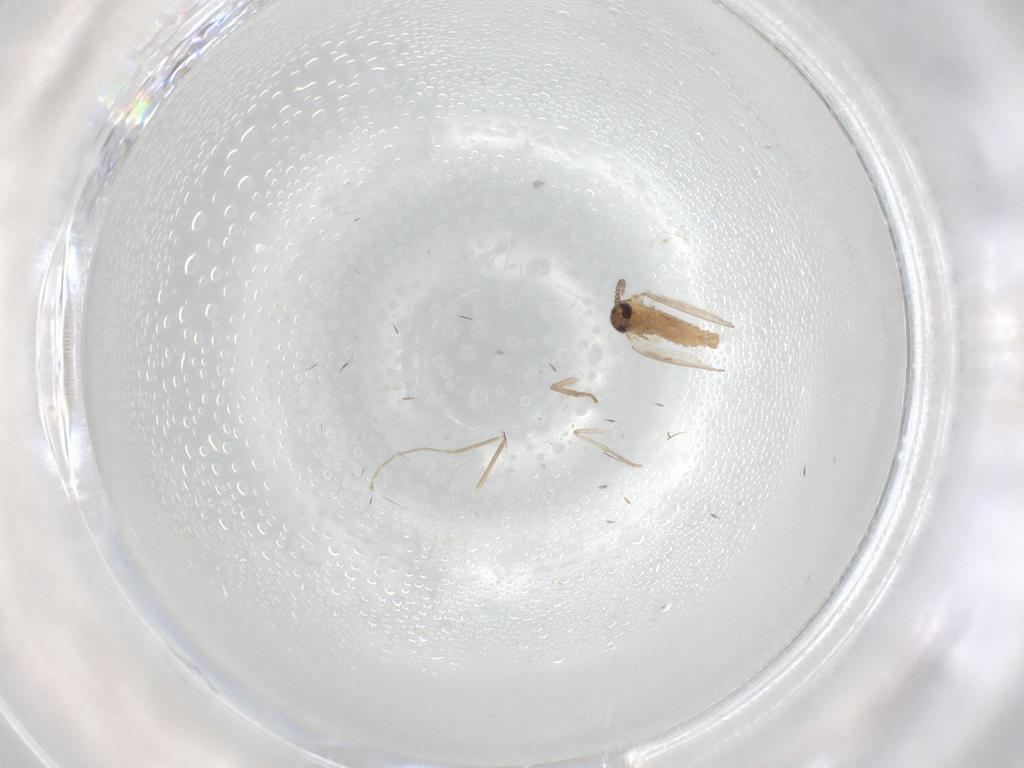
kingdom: Animalia
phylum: Arthropoda
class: Insecta
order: Diptera
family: Psychodidae
